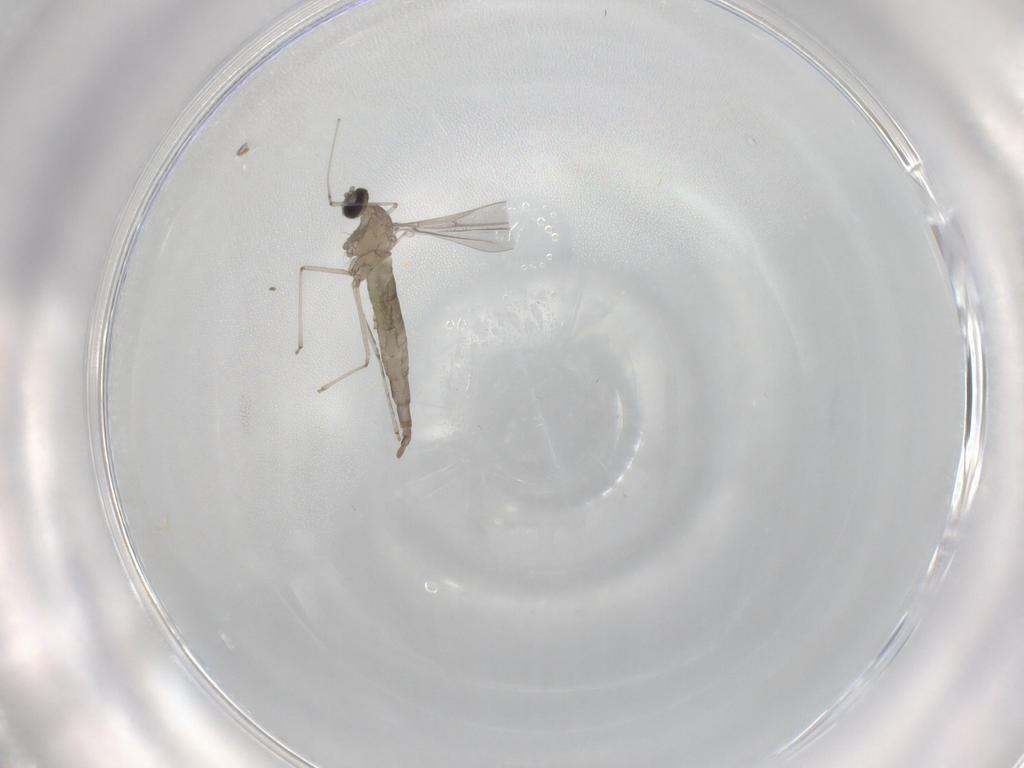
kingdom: Animalia
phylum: Arthropoda
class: Insecta
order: Diptera
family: Cecidomyiidae
